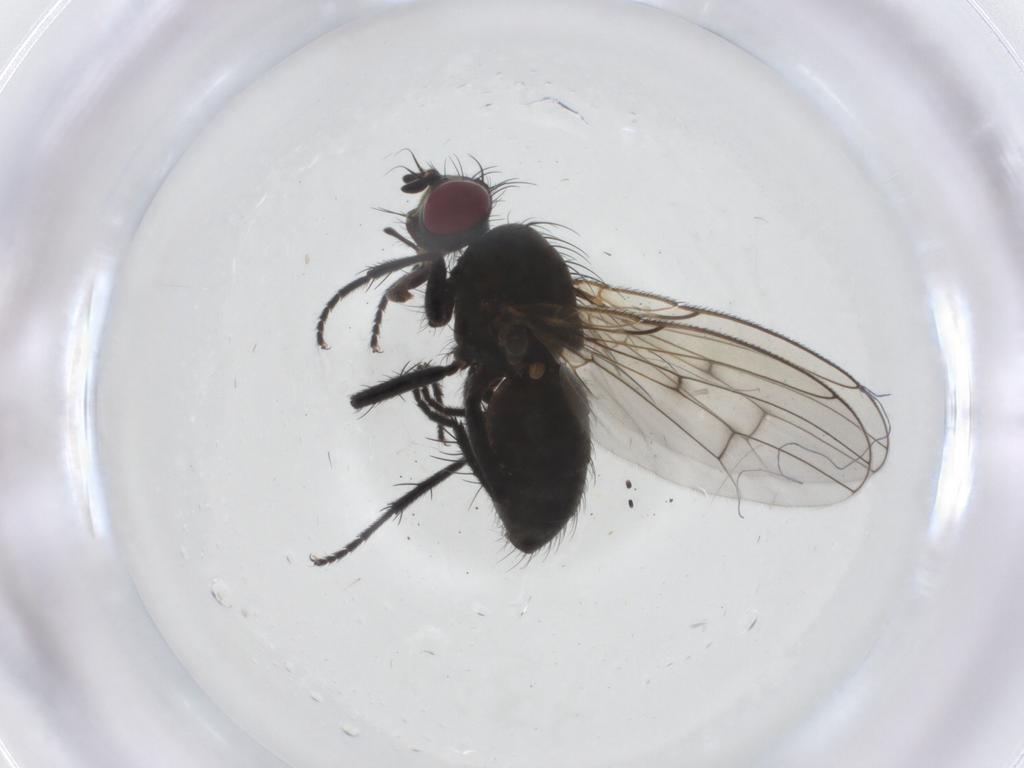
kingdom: Animalia
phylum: Arthropoda
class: Insecta
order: Diptera
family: Muscidae
